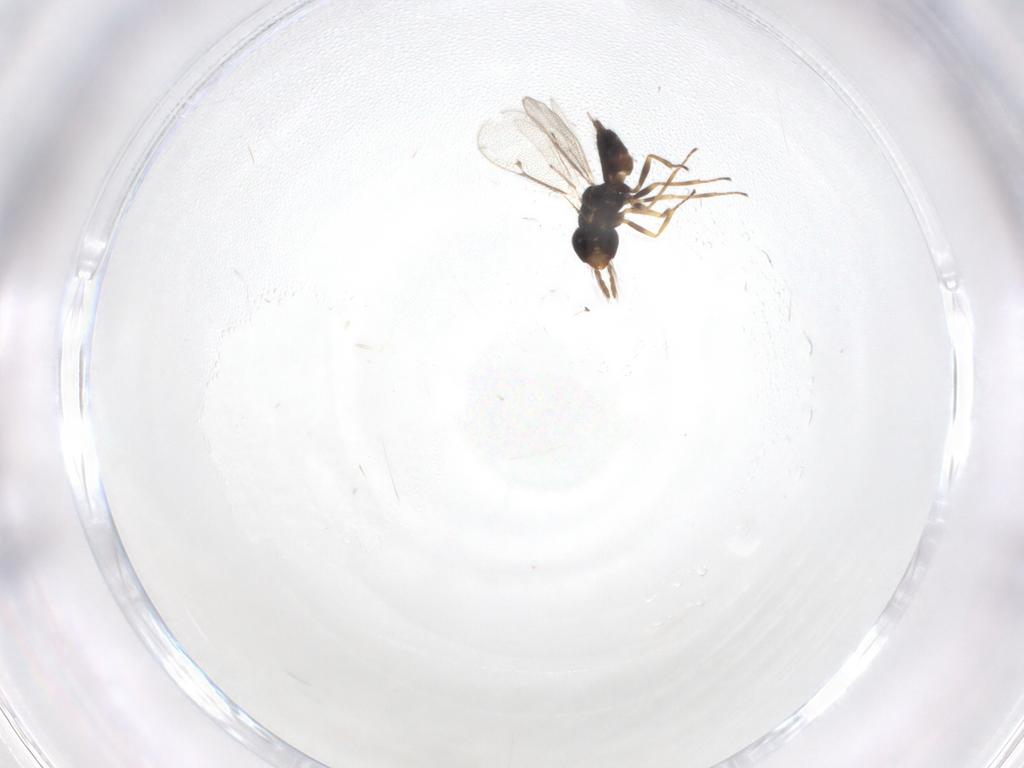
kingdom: Animalia
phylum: Arthropoda
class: Insecta
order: Hymenoptera
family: Eulophidae
